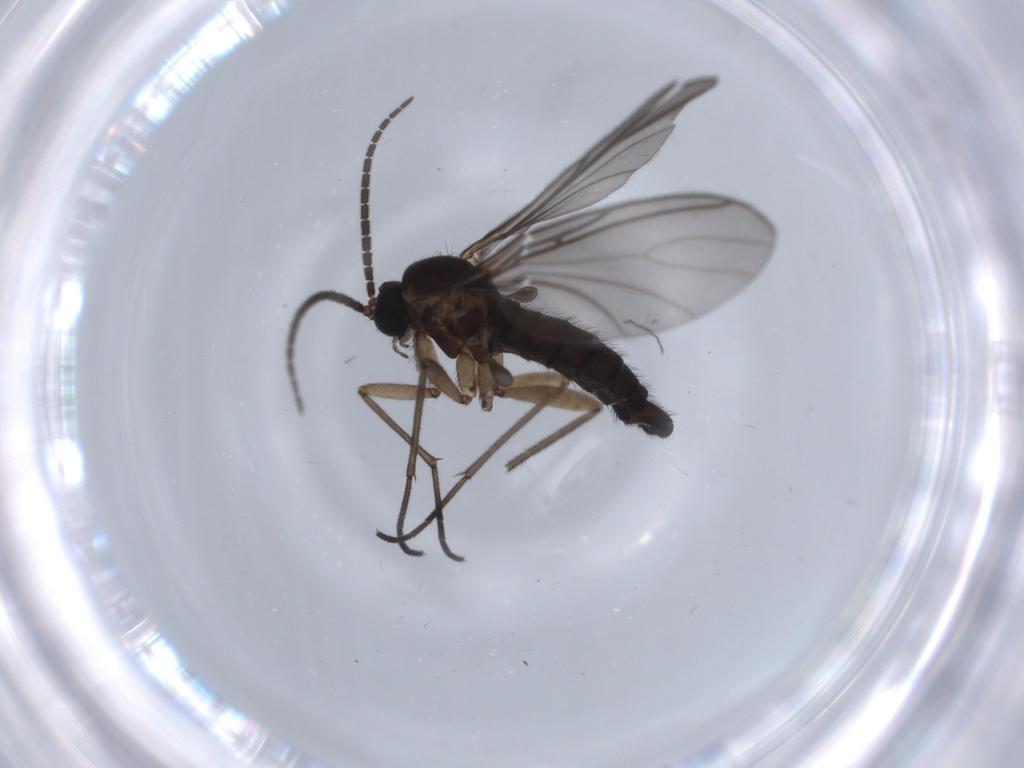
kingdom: Animalia
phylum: Arthropoda
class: Insecta
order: Diptera
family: Sciaridae
